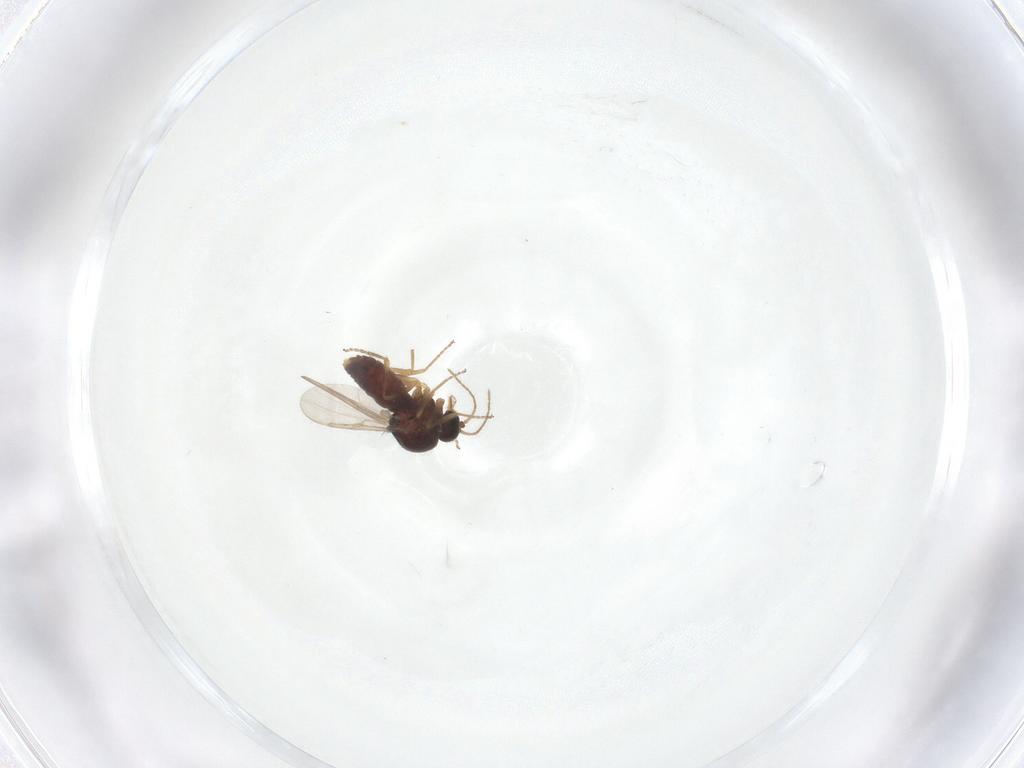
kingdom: Animalia
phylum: Arthropoda
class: Insecta
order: Diptera
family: Ceratopogonidae
